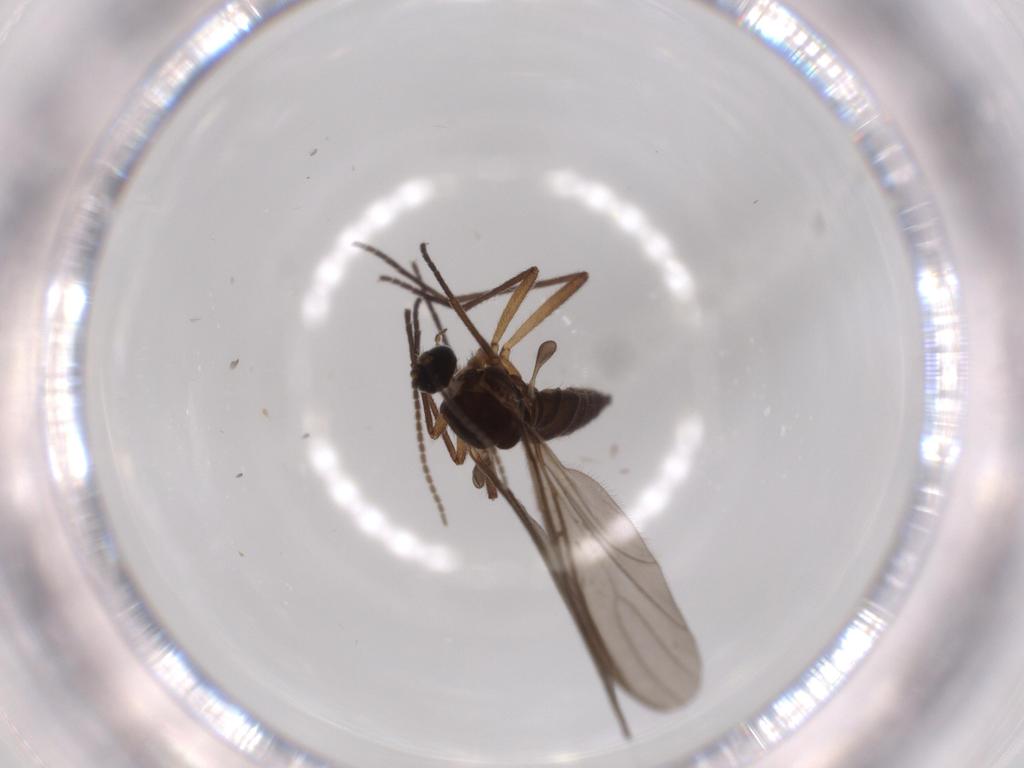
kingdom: Animalia
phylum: Arthropoda
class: Insecta
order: Diptera
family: Sciaridae
